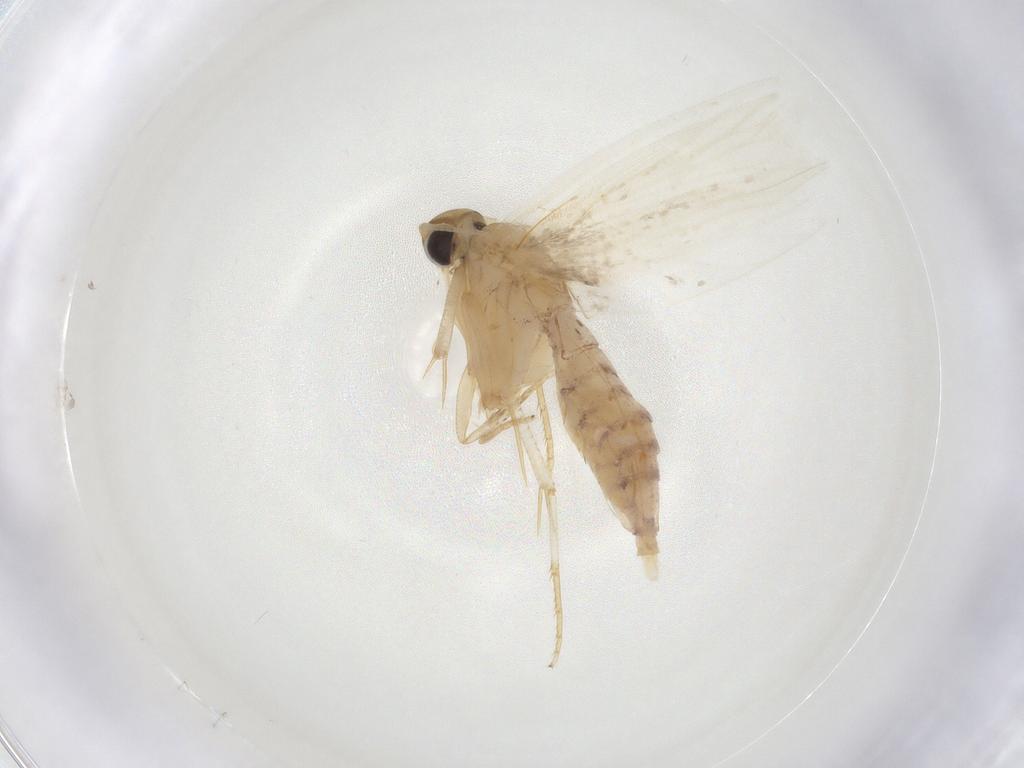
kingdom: Animalia
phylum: Arthropoda
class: Insecta
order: Lepidoptera
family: Gelechiidae
